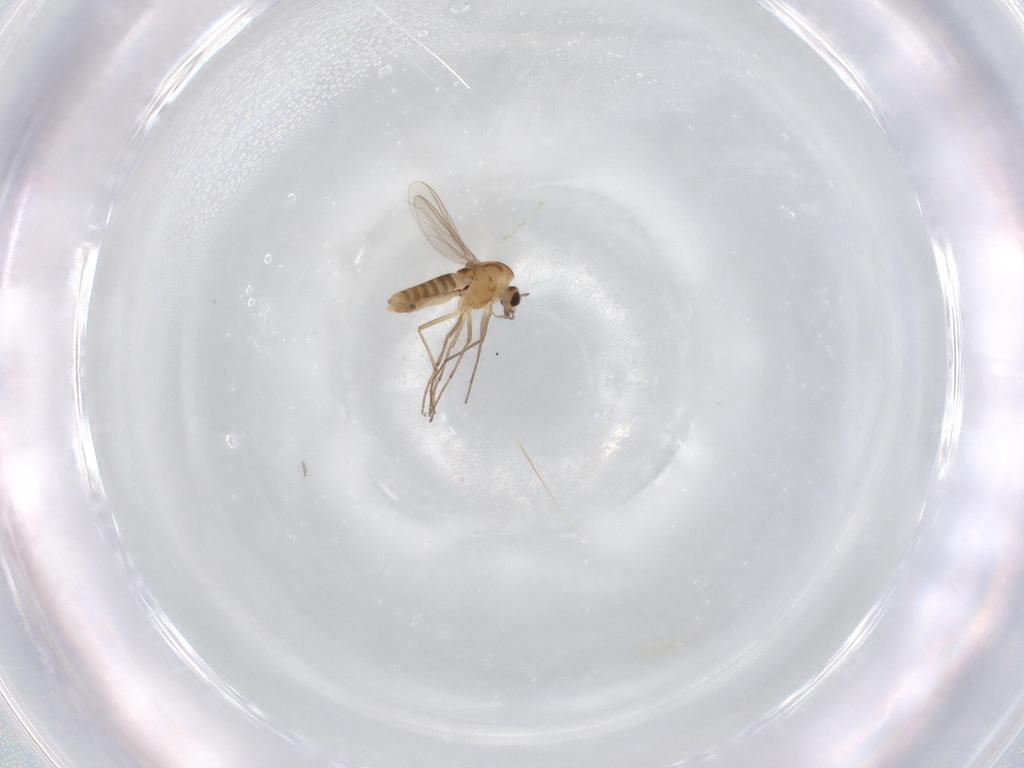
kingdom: Animalia
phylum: Arthropoda
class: Insecta
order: Diptera
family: Chironomidae
